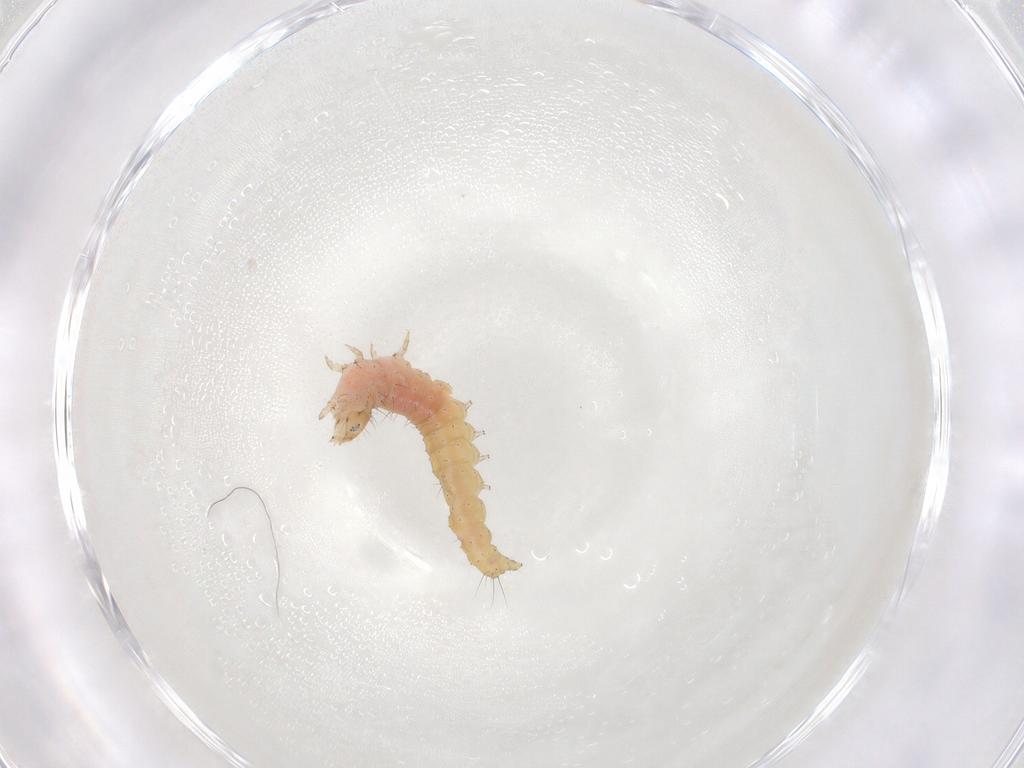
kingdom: Animalia
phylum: Arthropoda
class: Insecta
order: Lepidoptera
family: Gelechiidae
